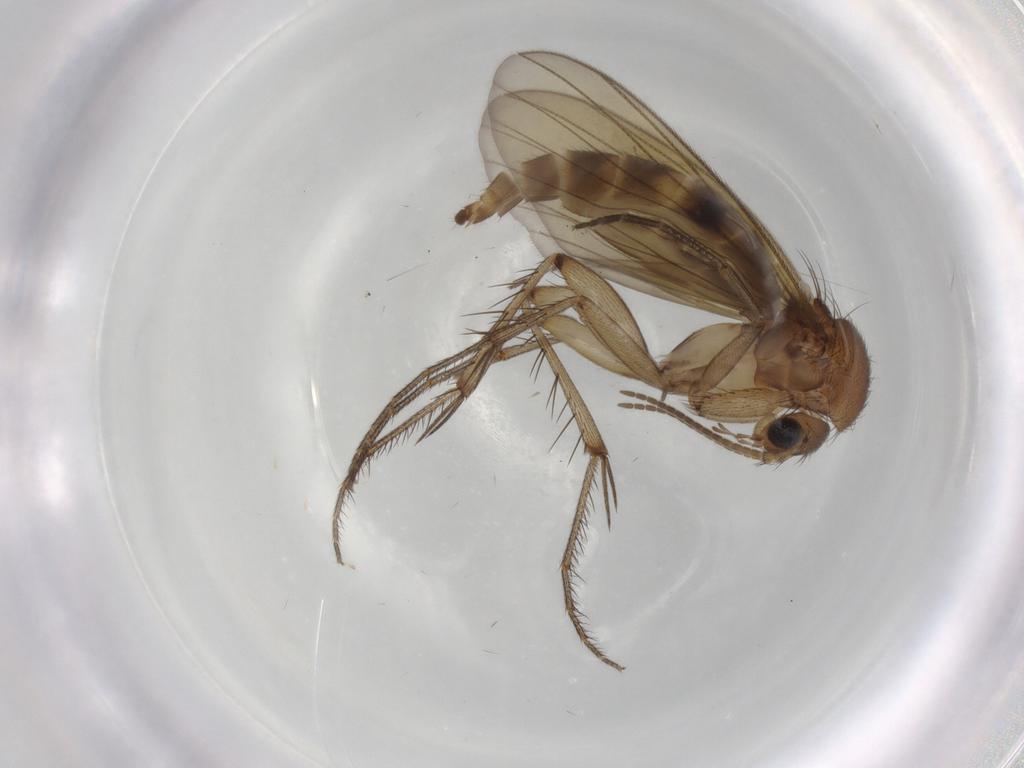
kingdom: Animalia
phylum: Arthropoda
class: Insecta
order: Diptera
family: Mycetophilidae
